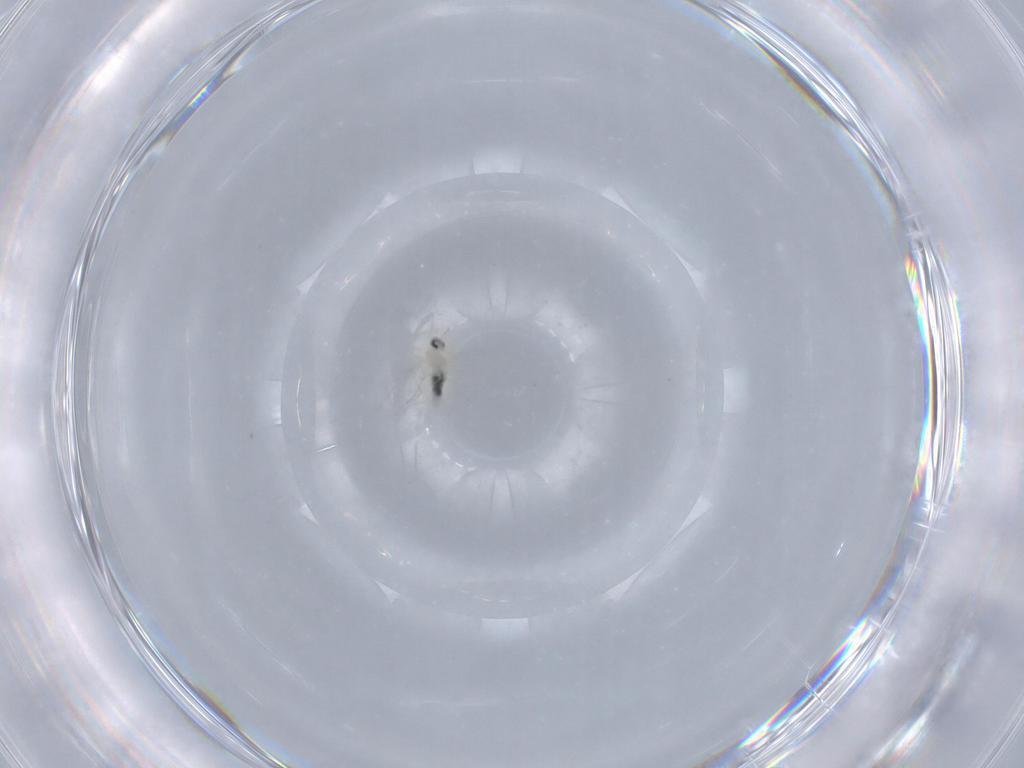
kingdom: Animalia
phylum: Arthropoda
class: Insecta
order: Diptera
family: Cecidomyiidae
